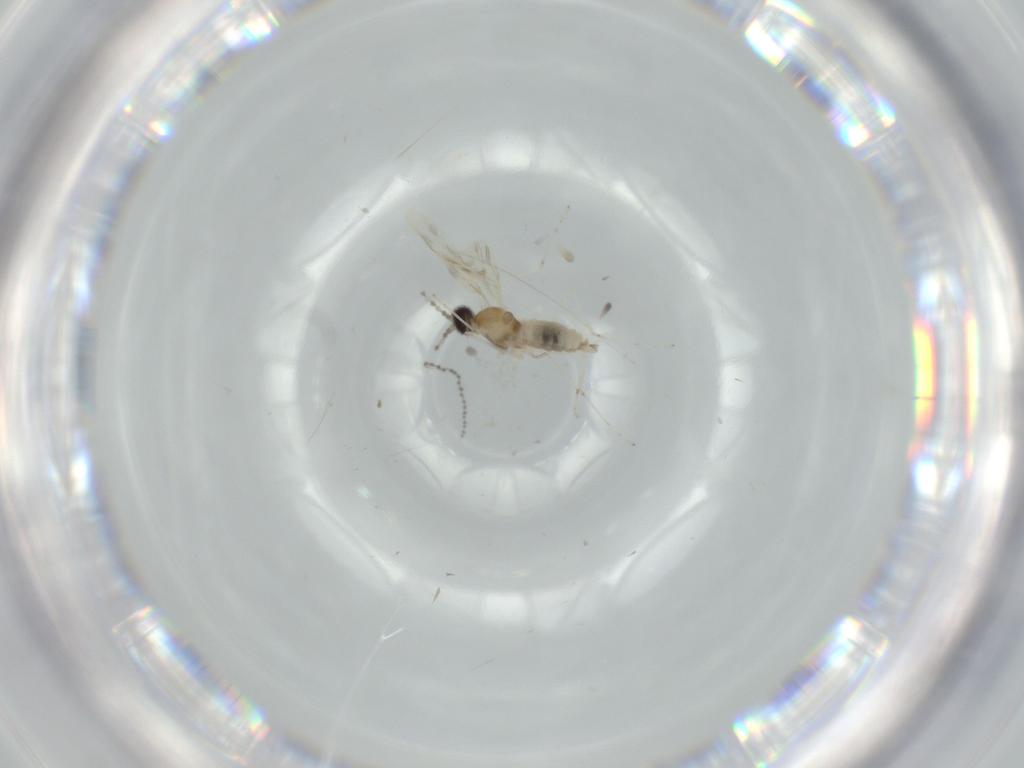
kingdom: Animalia
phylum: Arthropoda
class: Insecta
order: Diptera
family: Cecidomyiidae
